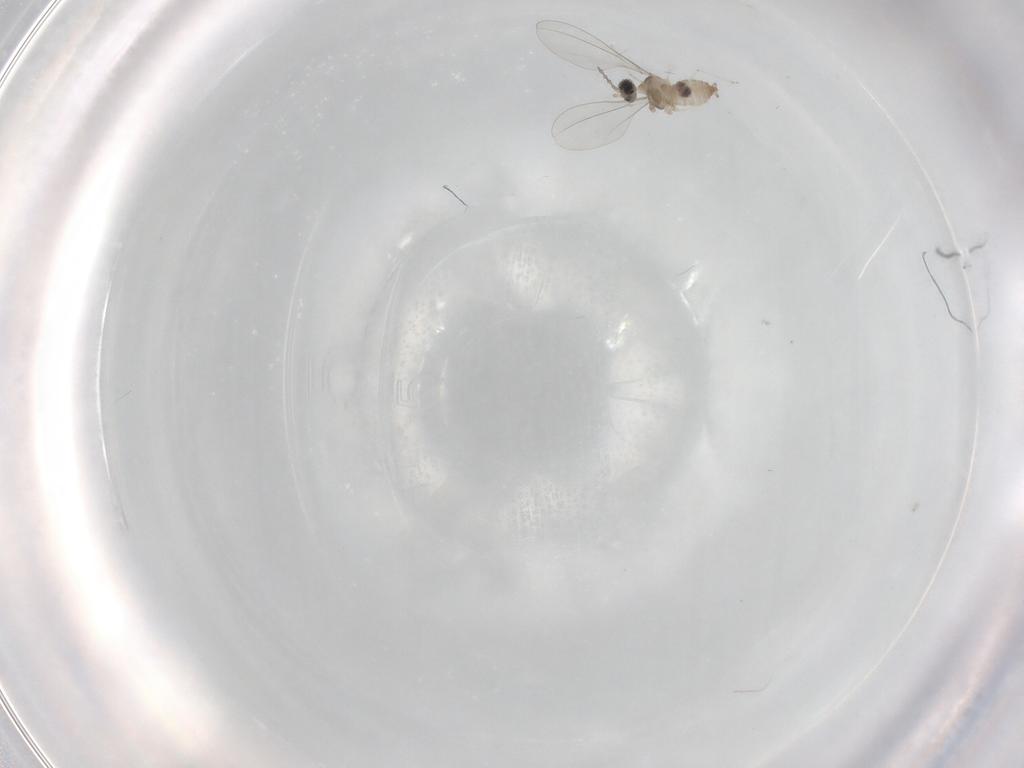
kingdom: Animalia
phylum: Arthropoda
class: Insecta
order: Diptera
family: Cecidomyiidae
